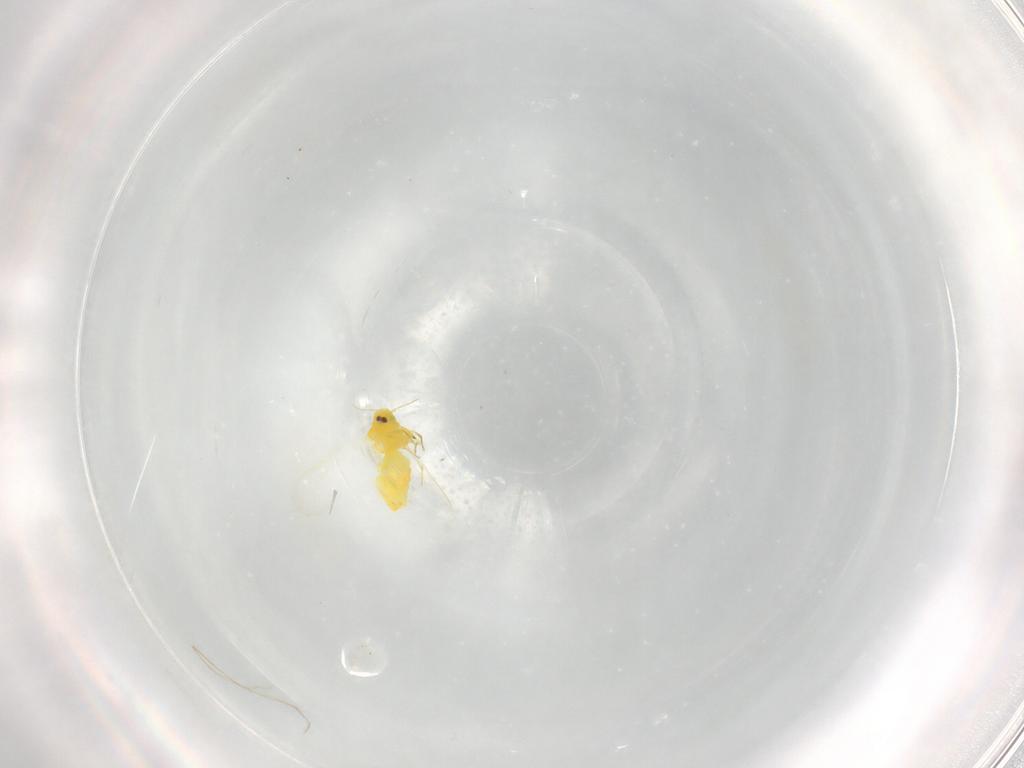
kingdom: Animalia
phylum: Arthropoda
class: Insecta
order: Hemiptera
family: Aleyrodidae
